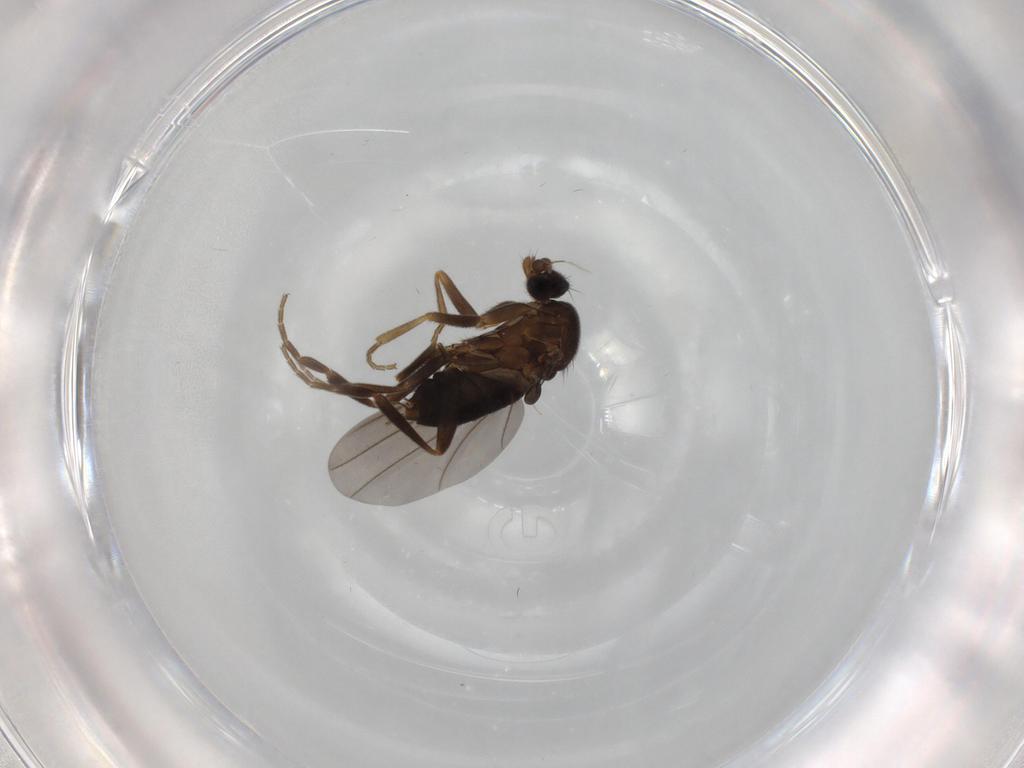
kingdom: Animalia
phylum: Arthropoda
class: Insecta
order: Diptera
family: Phoridae
